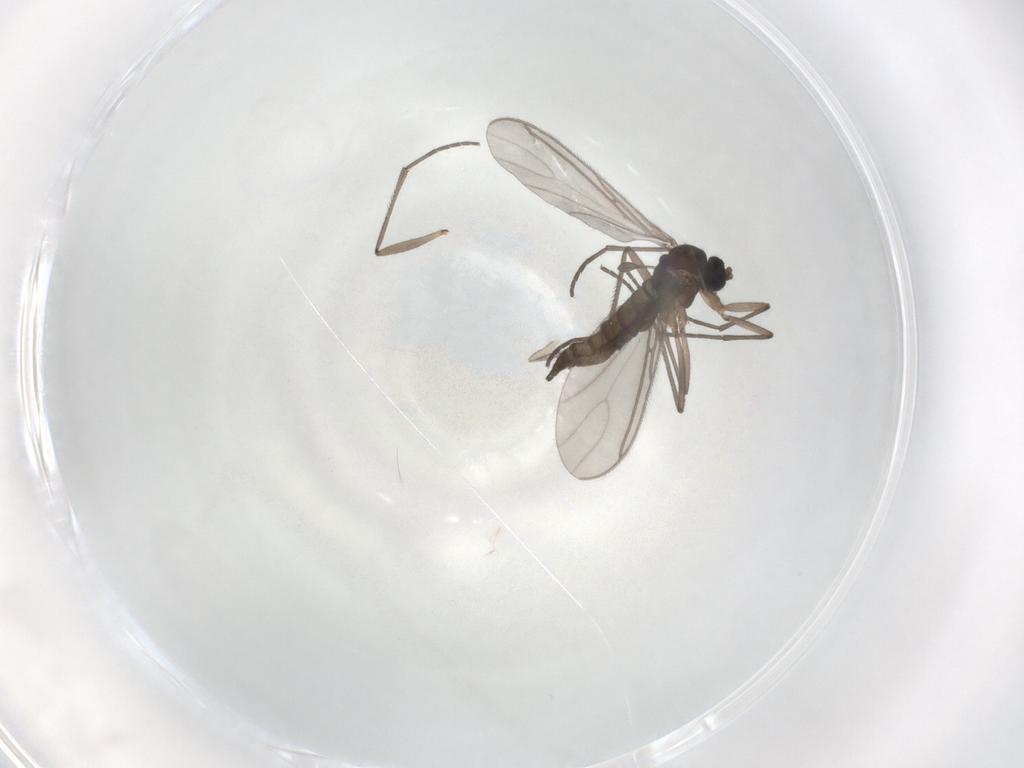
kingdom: Animalia
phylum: Arthropoda
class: Insecta
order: Diptera
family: Psychodidae
